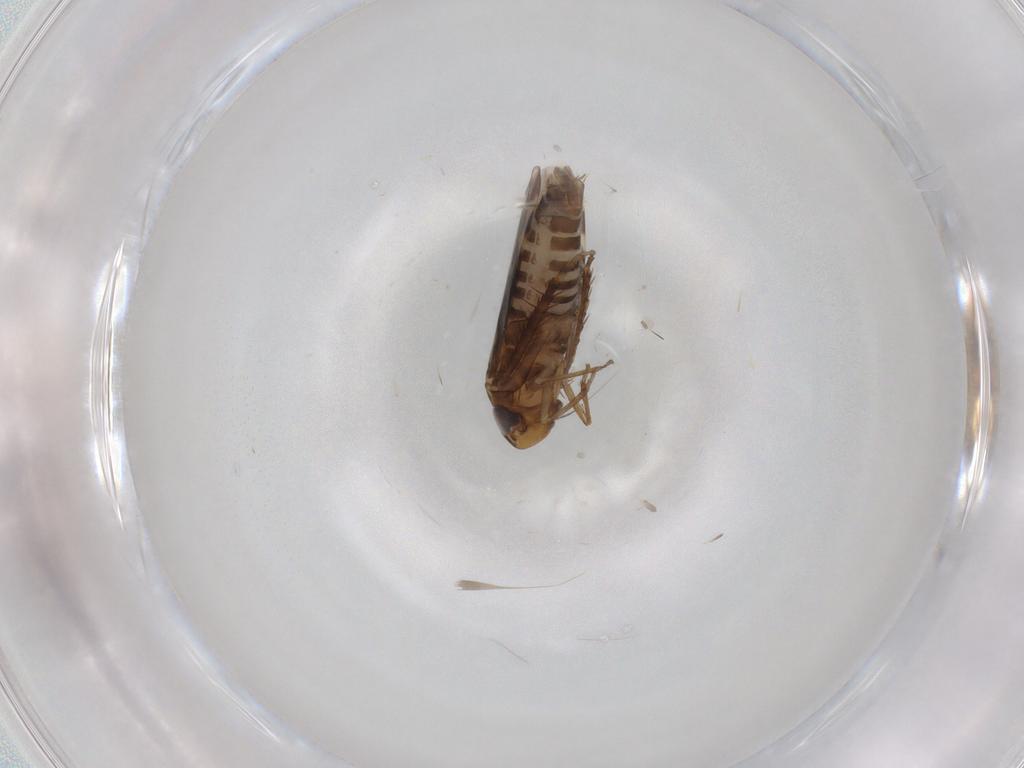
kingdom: Animalia
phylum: Arthropoda
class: Insecta
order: Hemiptera
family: Cicadellidae
